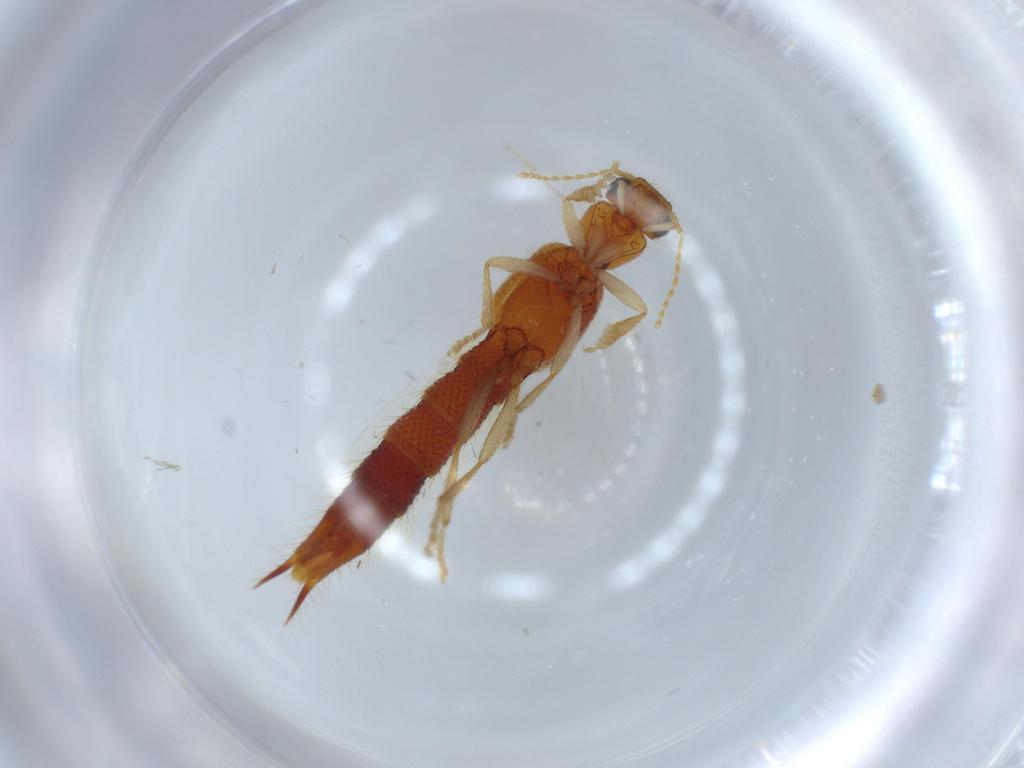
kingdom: Animalia
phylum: Arthropoda
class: Insecta
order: Coleoptera
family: Staphylinidae
